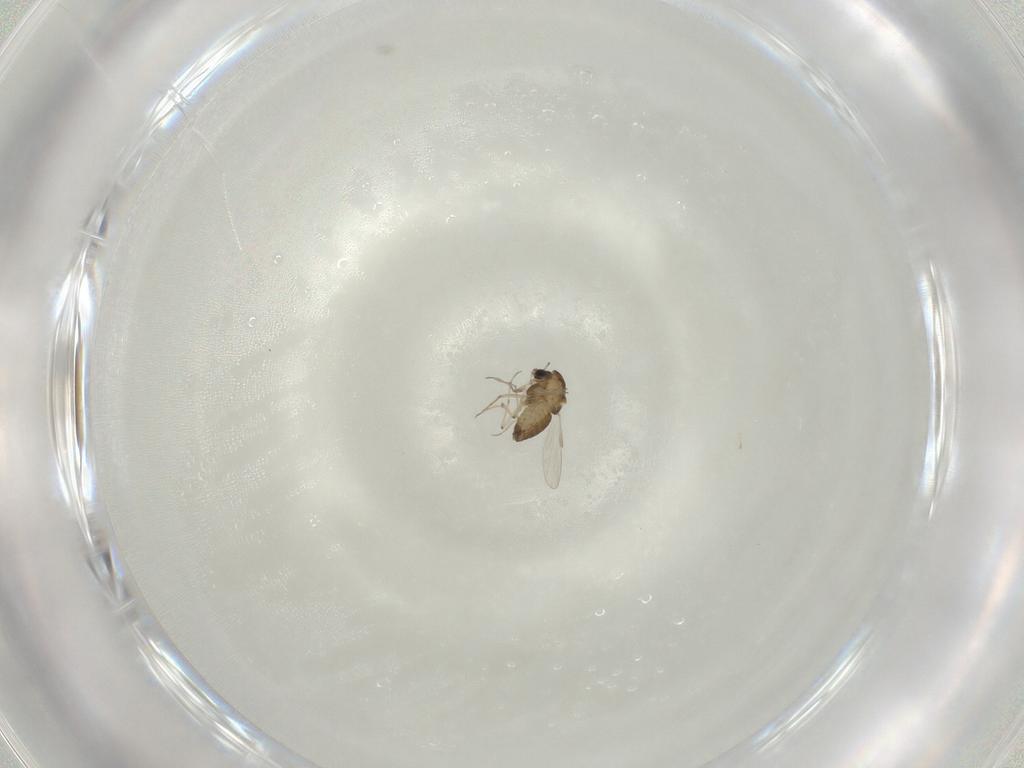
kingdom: Animalia
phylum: Arthropoda
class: Insecta
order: Diptera
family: Chironomidae
